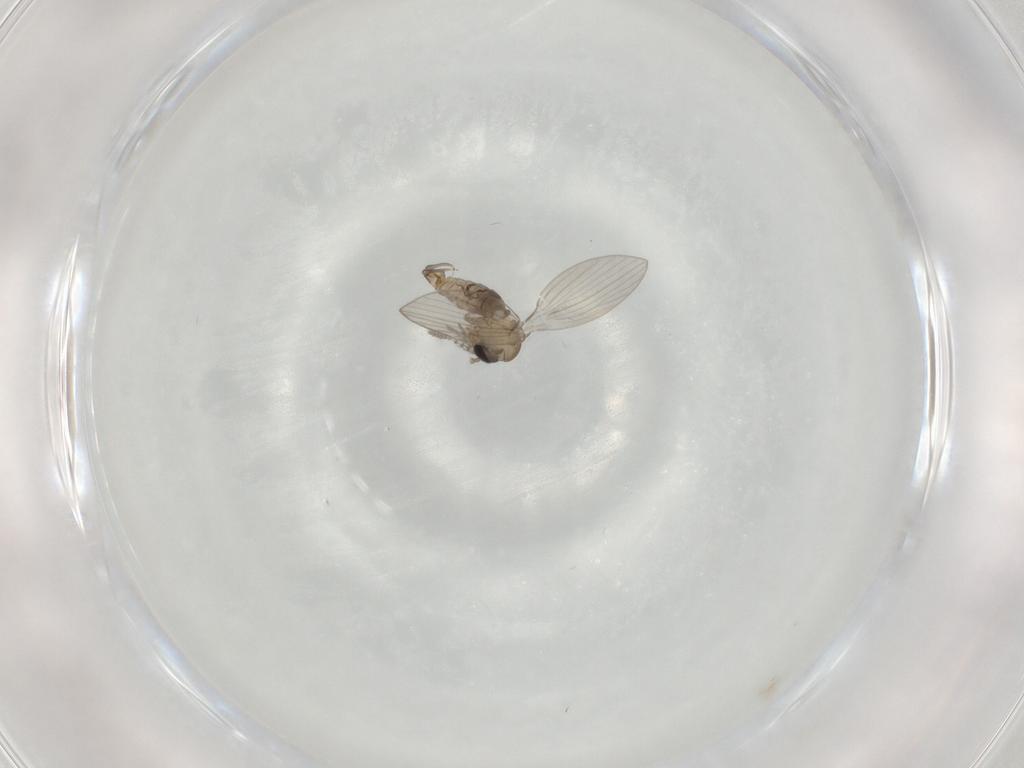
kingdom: Animalia
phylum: Arthropoda
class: Insecta
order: Diptera
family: Psychodidae
